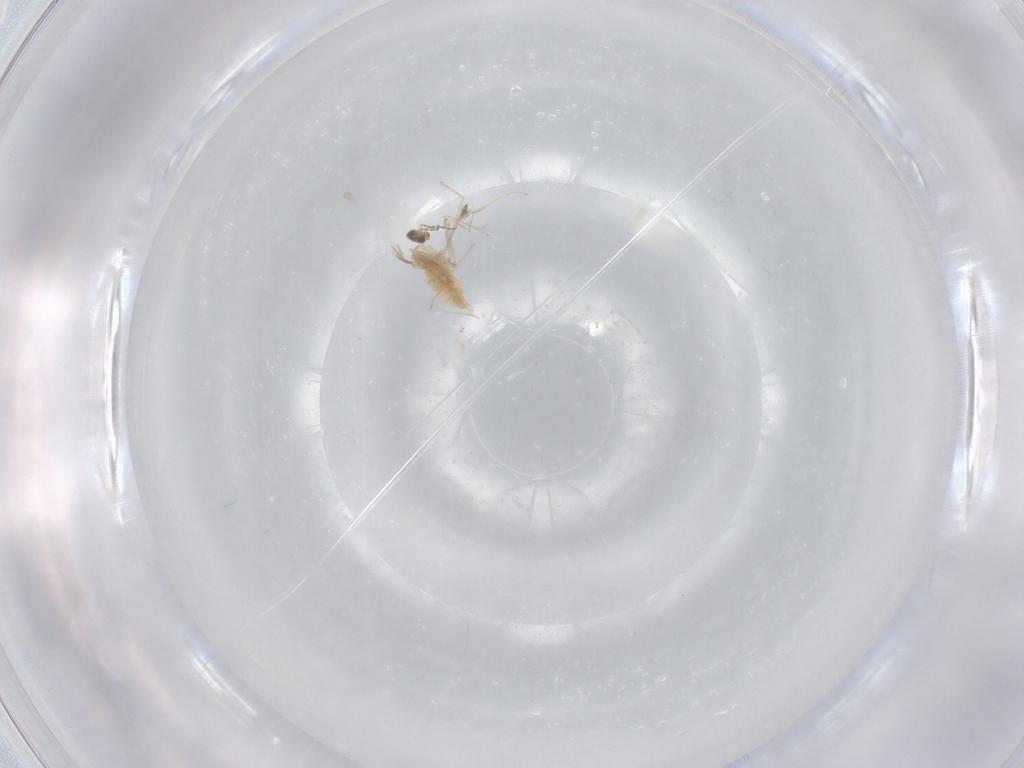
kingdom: Animalia
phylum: Arthropoda
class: Insecta
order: Diptera
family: Chironomidae
